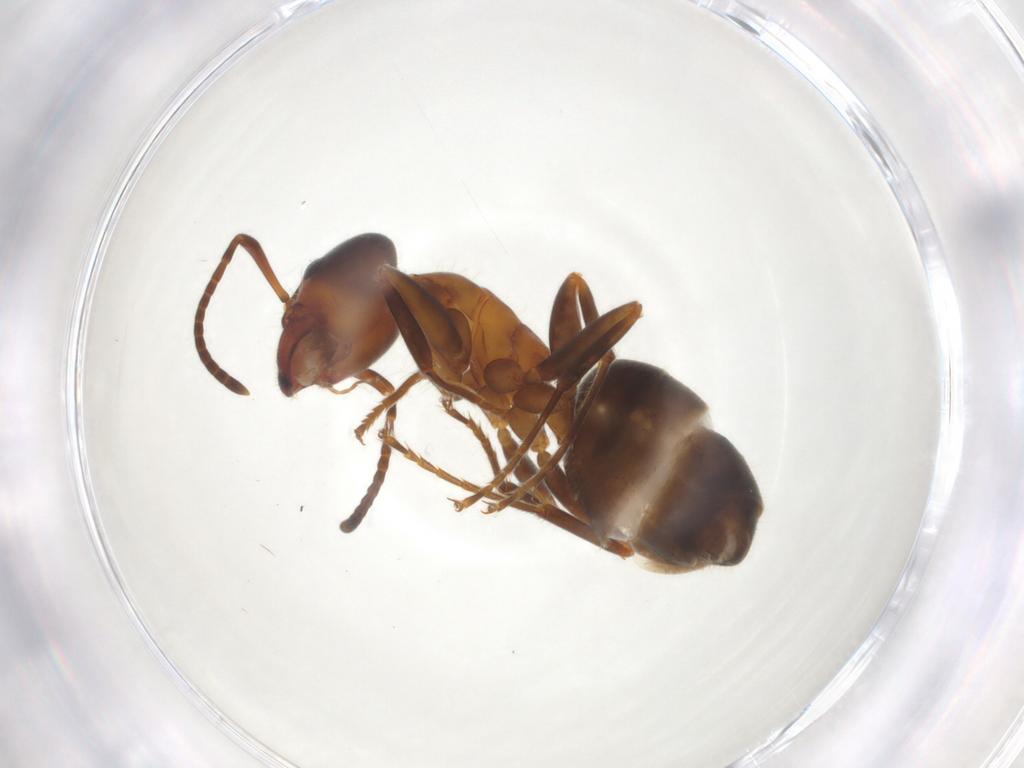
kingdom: Animalia
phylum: Arthropoda
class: Insecta
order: Hymenoptera
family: Formicidae
